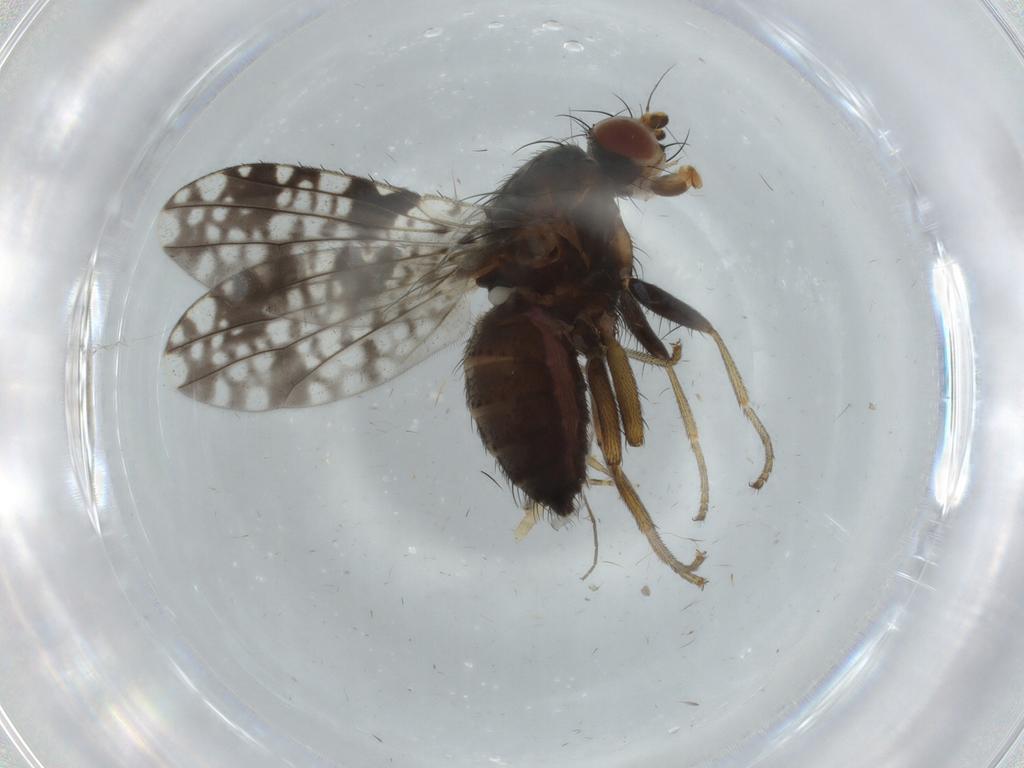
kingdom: Animalia
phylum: Arthropoda
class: Insecta
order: Diptera
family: Tephritidae
